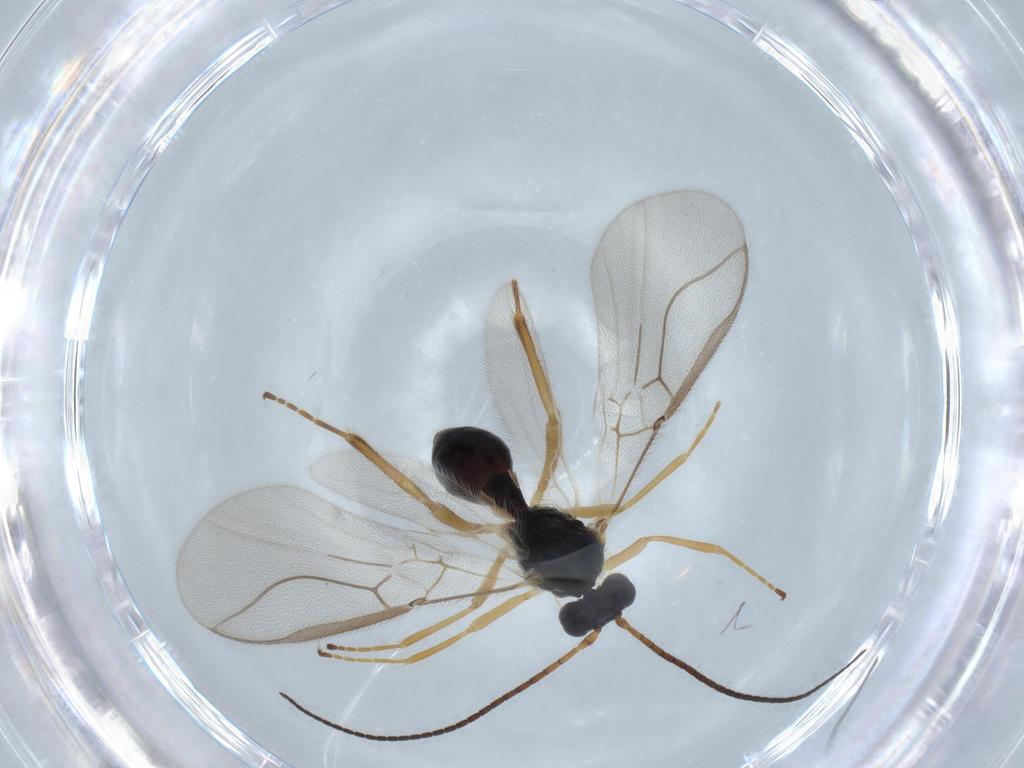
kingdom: Animalia
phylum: Arthropoda
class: Insecta
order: Hymenoptera
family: Braconidae
